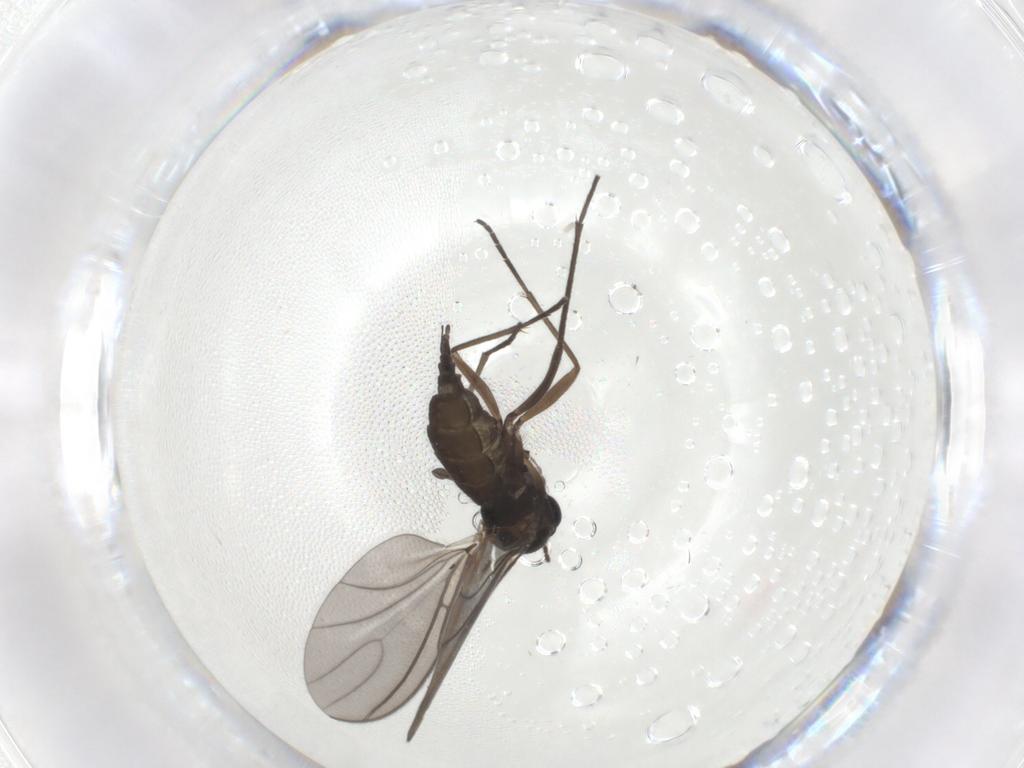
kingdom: Animalia
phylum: Arthropoda
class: Insecta
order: Diptera
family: Sciaridae
